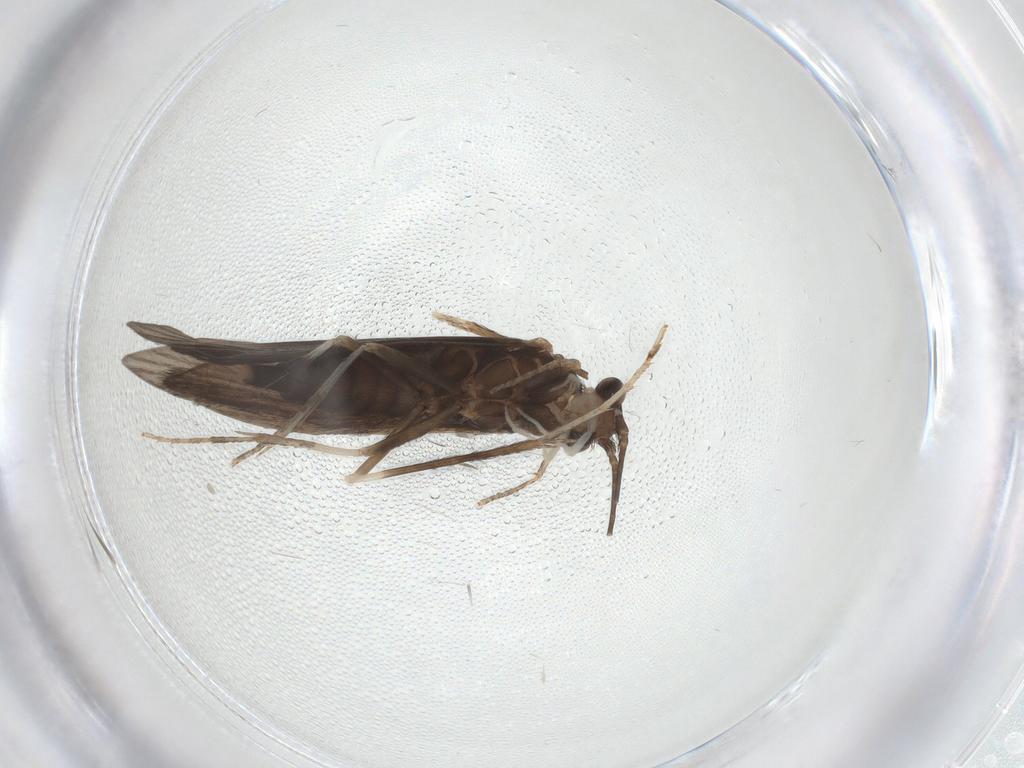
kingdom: Animalia
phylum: Arthropoda
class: Insecta
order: Trichoptera
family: Xiphocentronidae
